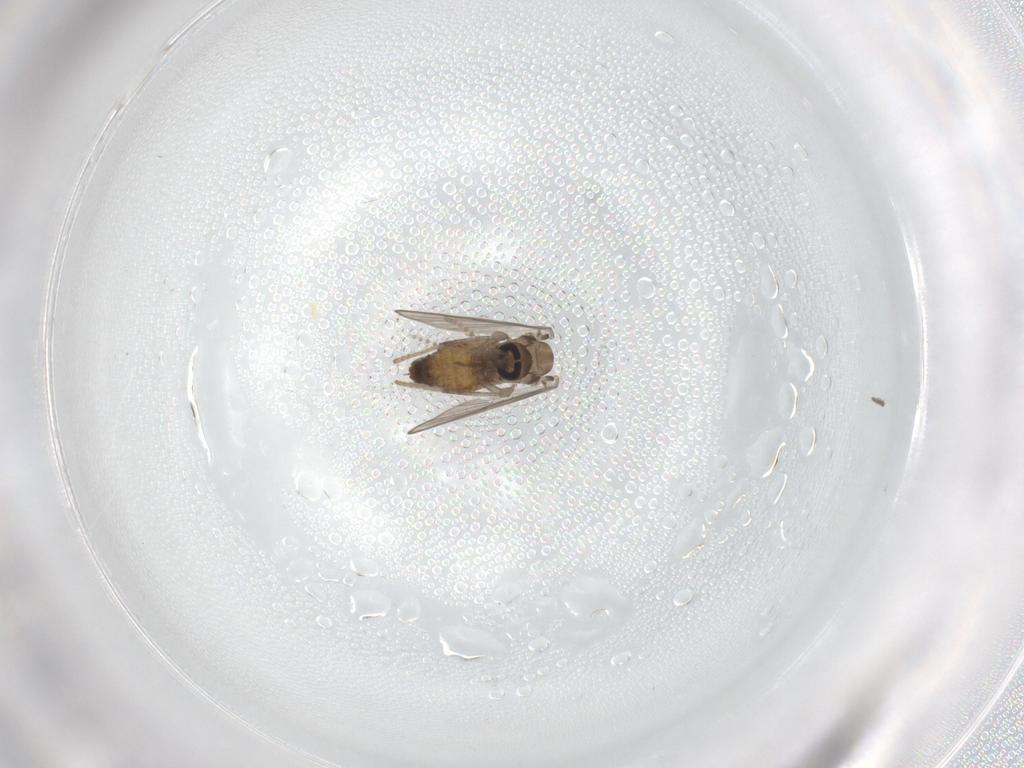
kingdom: Animalia
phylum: Arthropoda
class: Insecta
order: Diptera
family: Psychodidae
